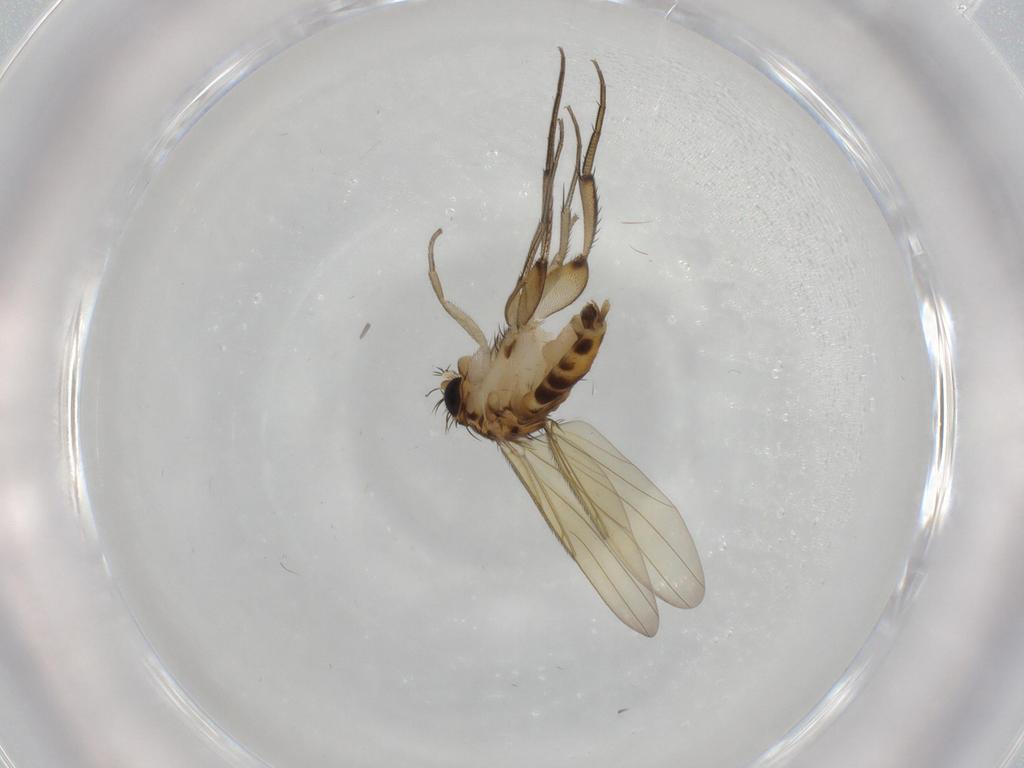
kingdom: Animalia
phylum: Arthropoda
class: Insecta
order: Diptera
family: Phoridae
